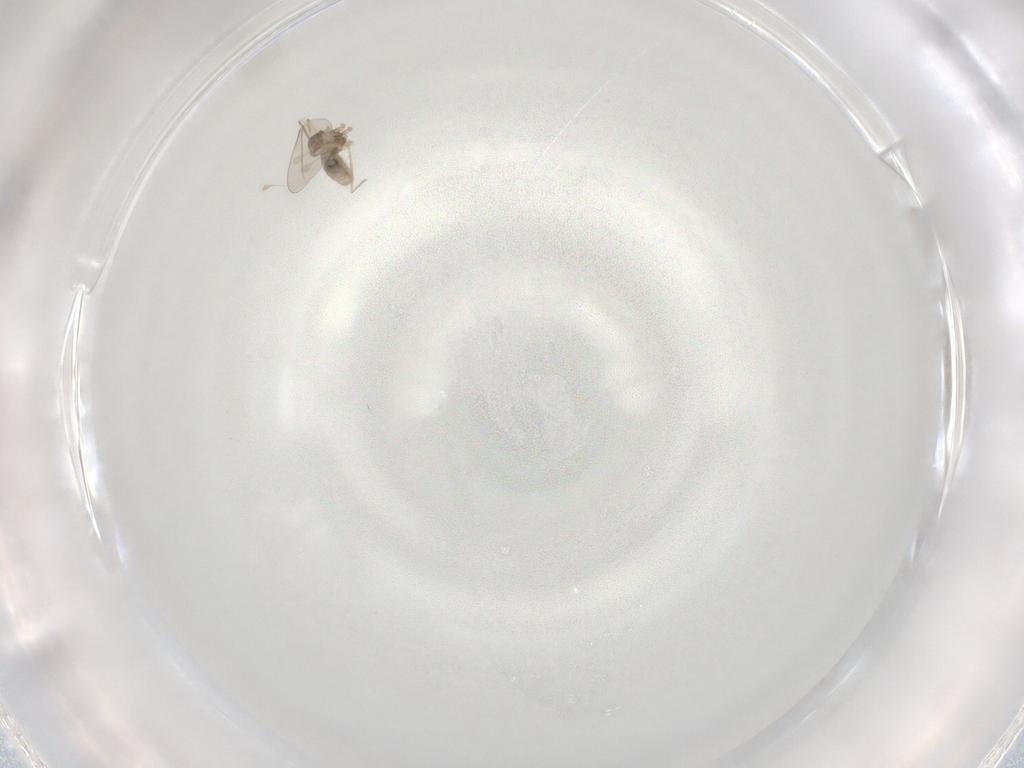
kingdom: Animalia
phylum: Arthropoda
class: Insecta
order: Diptera
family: Cecidomyiidae
